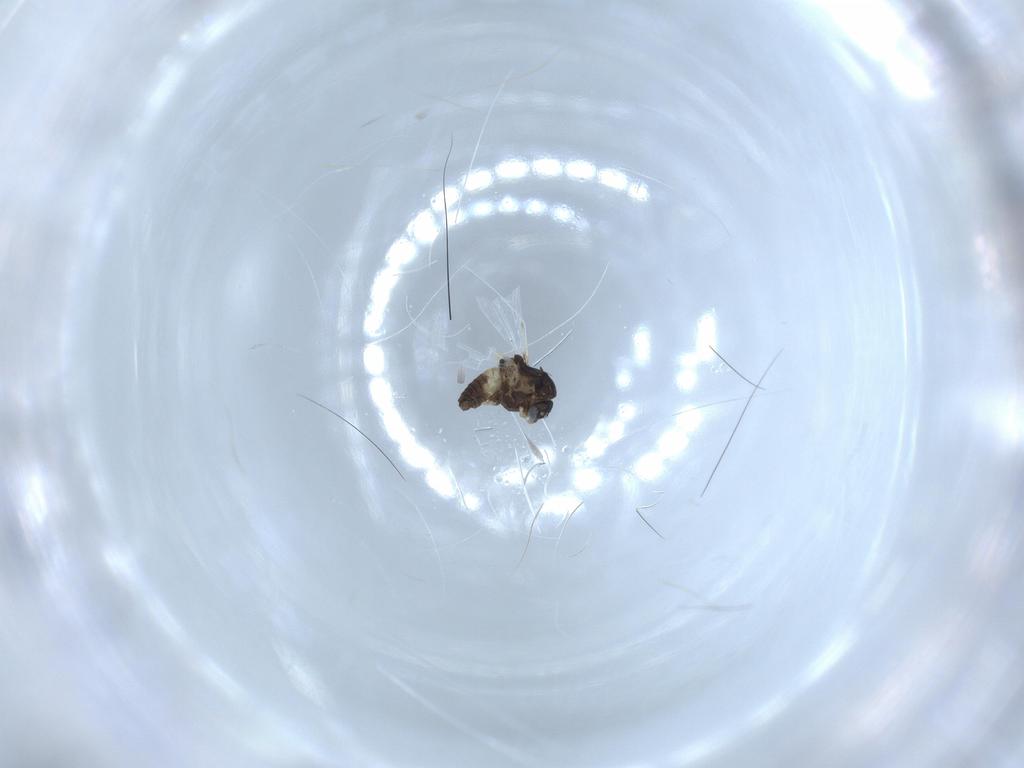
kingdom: Animalia
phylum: Arthropoda
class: Insecta
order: Diptera
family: Chironomidae
